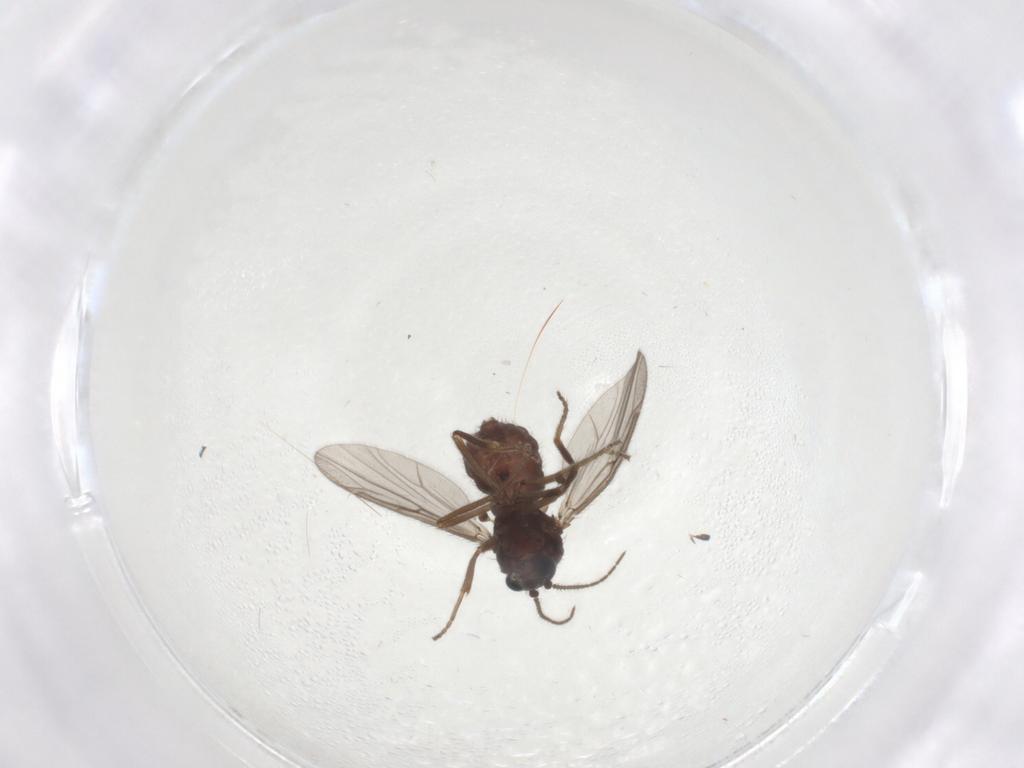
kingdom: Animalia
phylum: Arthropoda
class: Insecta
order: Diptera
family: Ceratopogonidae
